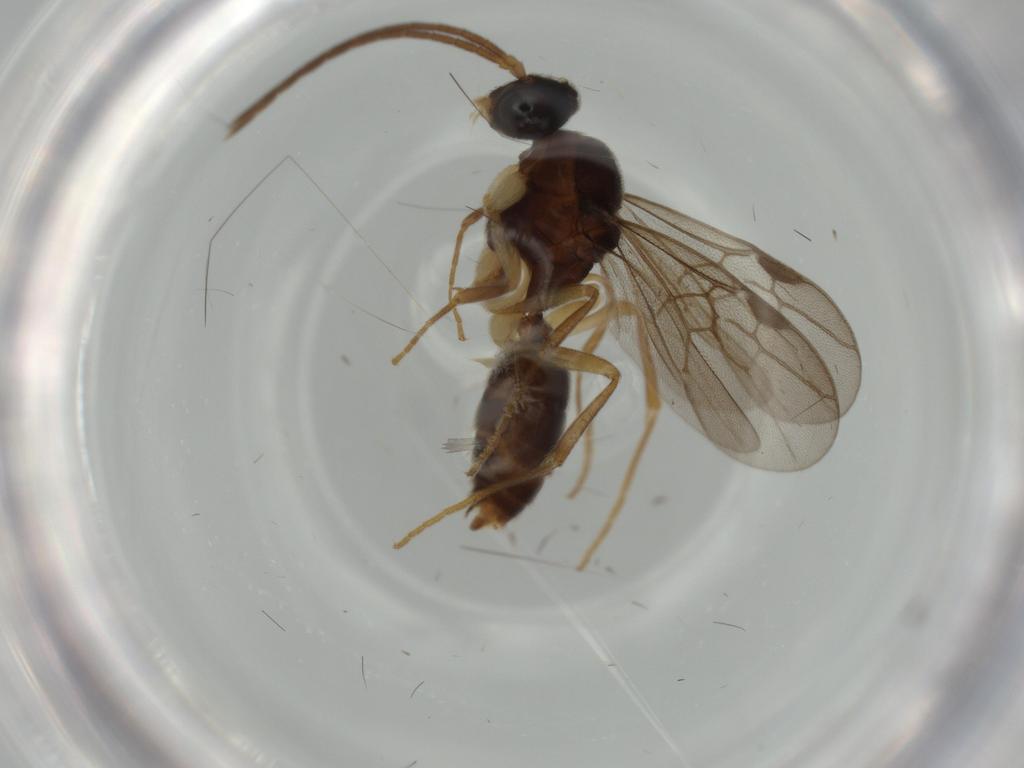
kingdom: Animalia
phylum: Arthropoda
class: Insecta
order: Hymenoptera
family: Formicidae
